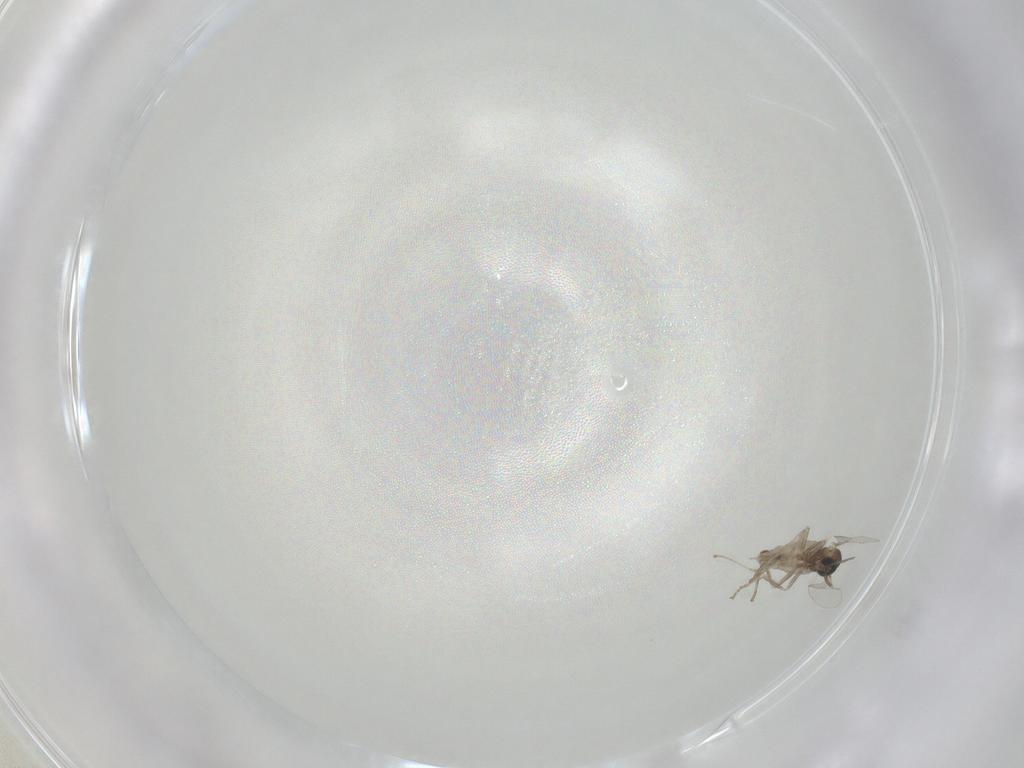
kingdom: Animalia
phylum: Arthropoda
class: Insecta
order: Diptera
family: Cecidomyiidae
